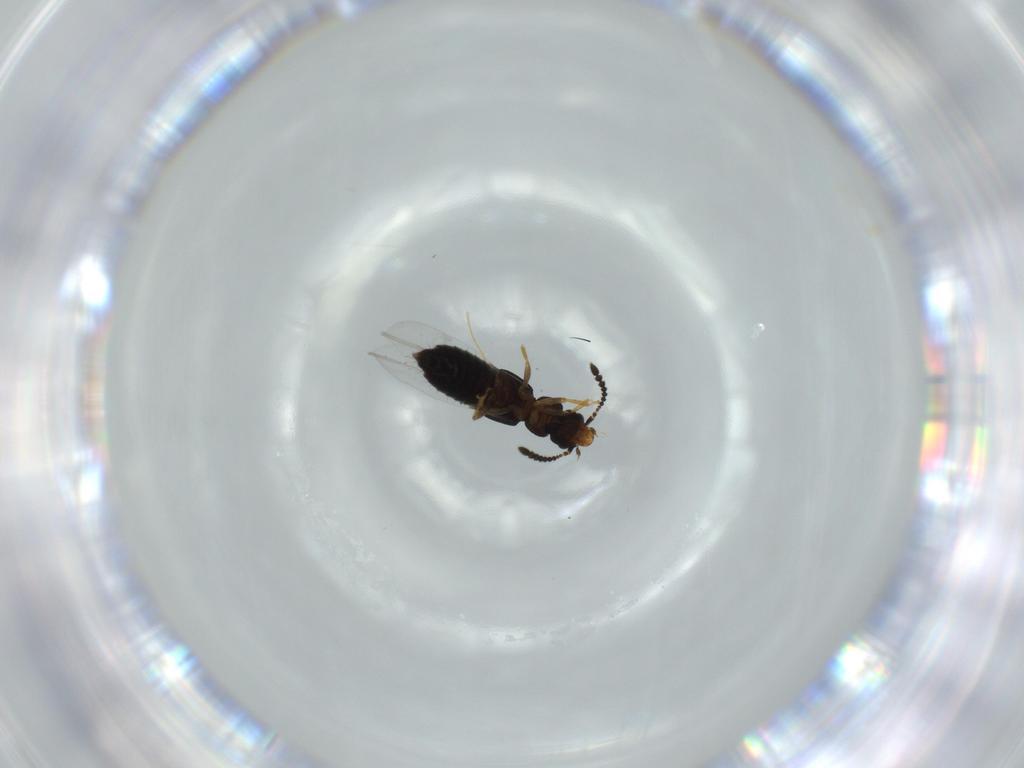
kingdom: Animalia
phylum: Arthropoda
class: Insecta
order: Coleoptera
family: Staphylinidae
